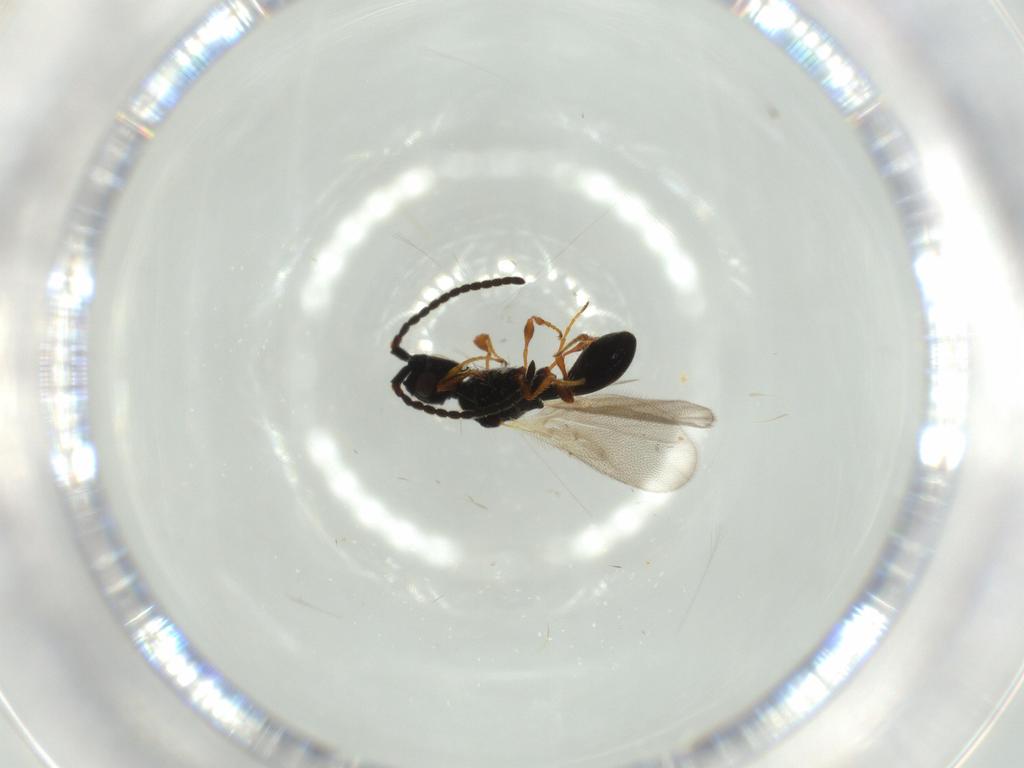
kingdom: Animalia
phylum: Arthropoda
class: Insecta
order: Hymenoptera
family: Diapriidae
